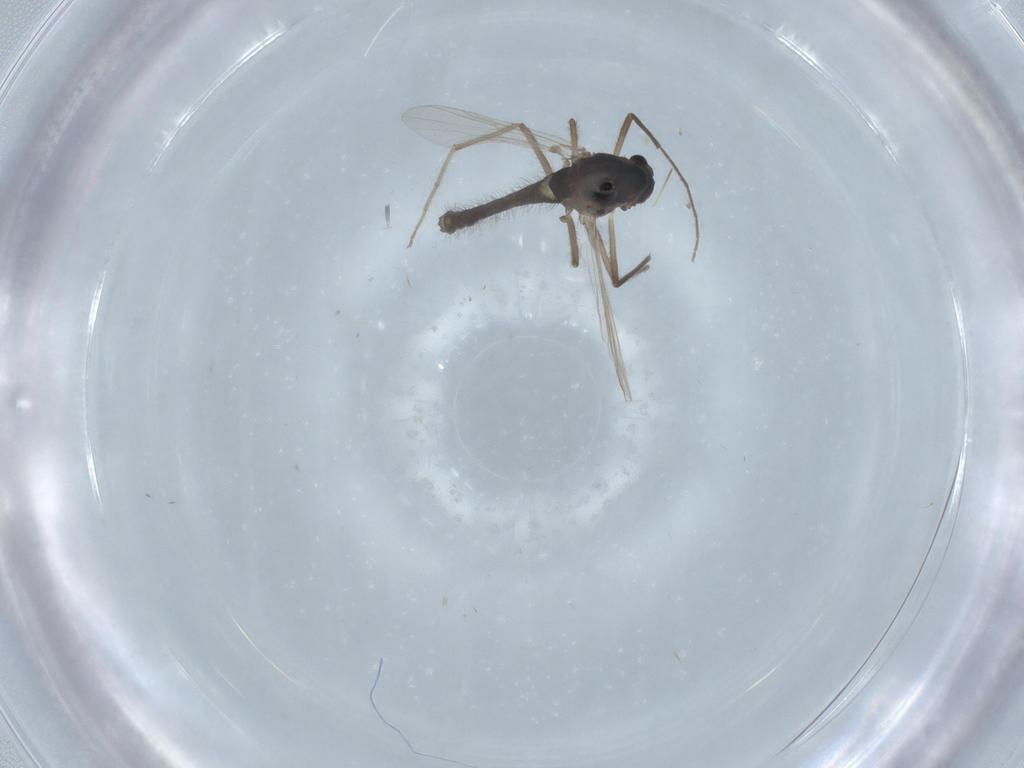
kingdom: Animalia
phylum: Arthropoda
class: Insecta
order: Diptera
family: Chironomidae
